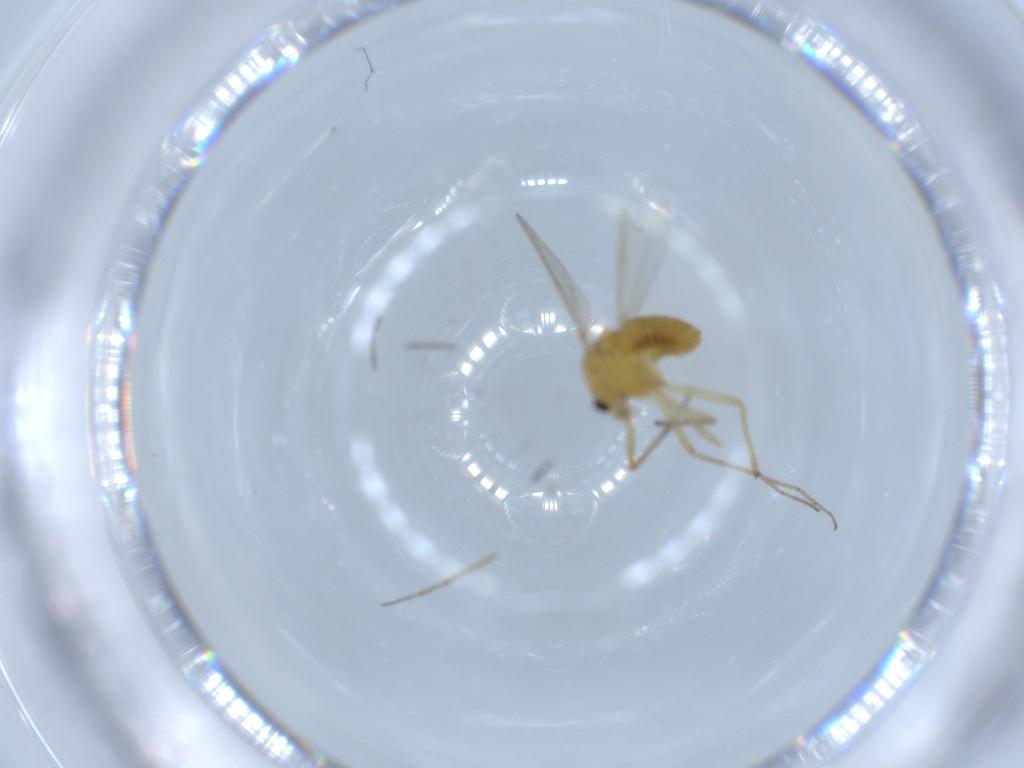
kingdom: Animalia
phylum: Arthropoda
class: Insecta
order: Diptera
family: Chironomidae
